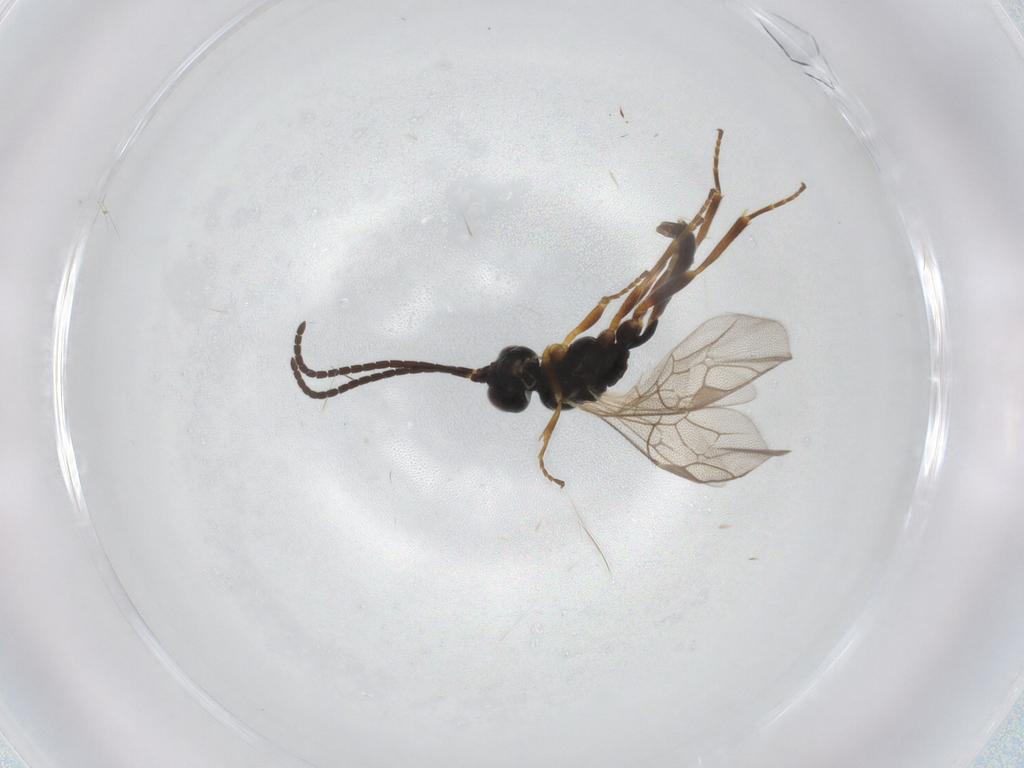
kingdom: Animalia
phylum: Arthropoda
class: Insecta
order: Hymenoptera
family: Ichneumonidae
